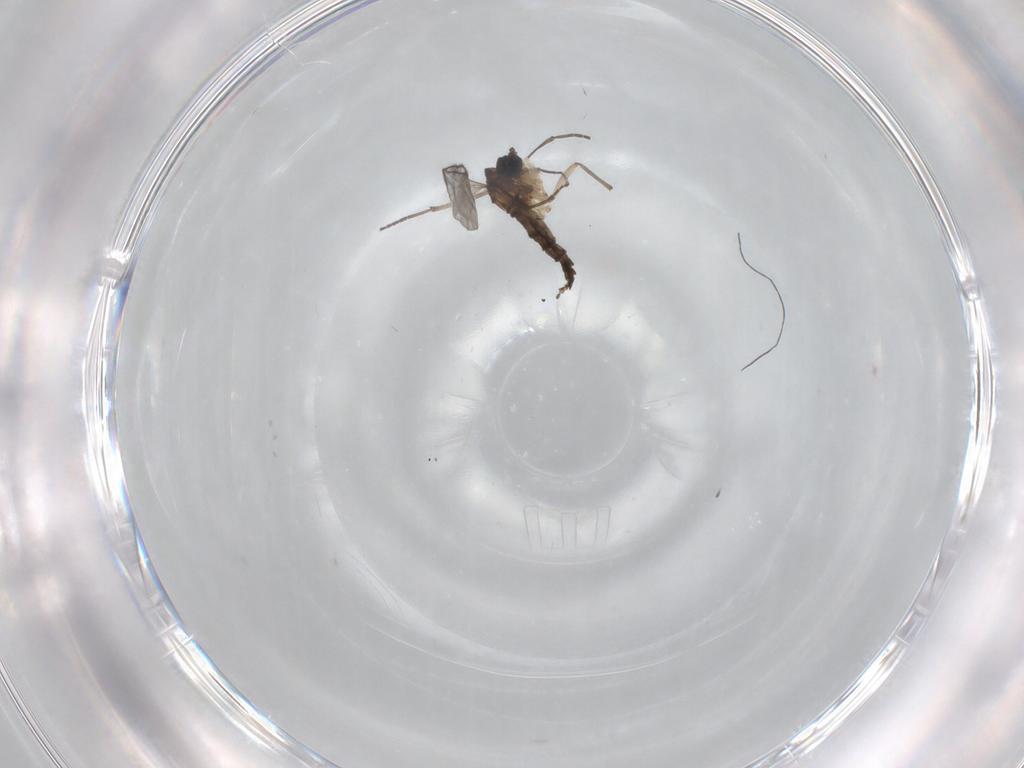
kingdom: Animalia
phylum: Arthropoda
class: Insecta
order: Diptera
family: Sciaridae
